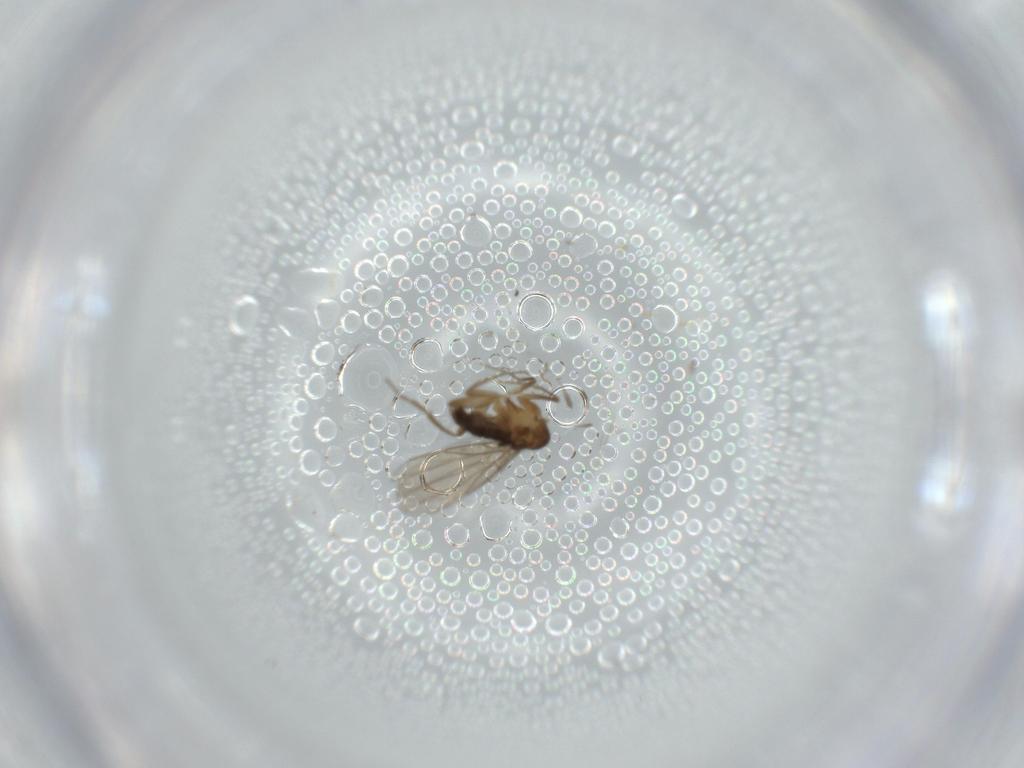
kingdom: Animalia
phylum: Arthropoda
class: Insecta
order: Diptera
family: Phoridae
